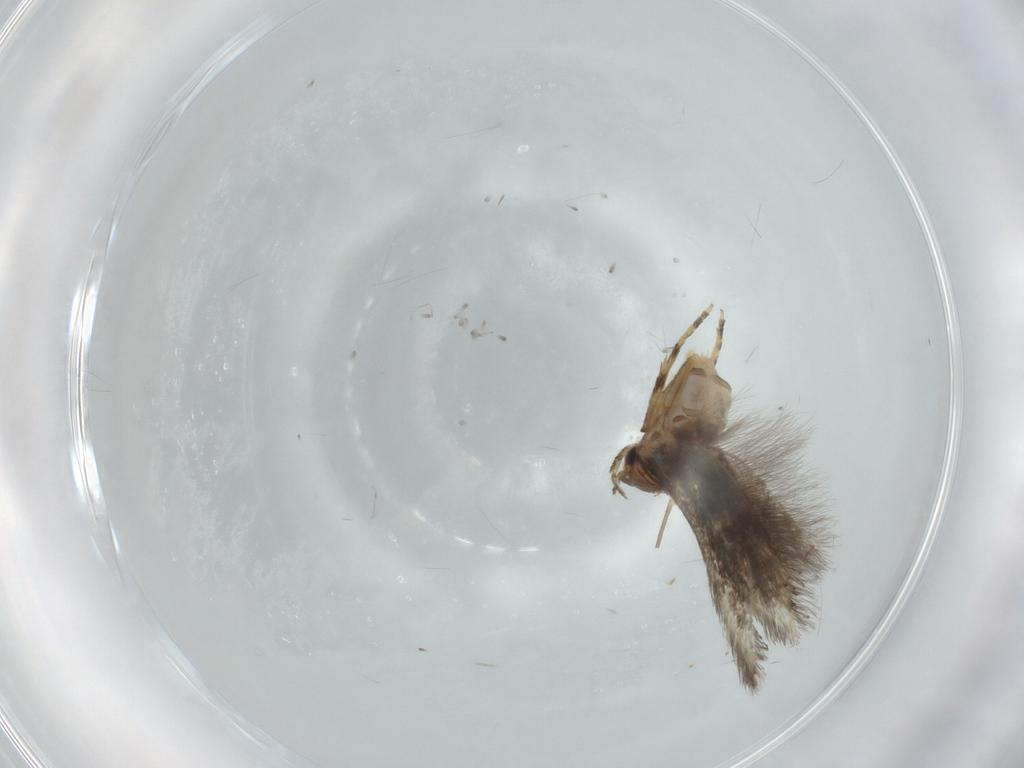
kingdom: Animalia
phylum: Arthropoda
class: Insecta
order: Lepidoptera
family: Elachistidae
